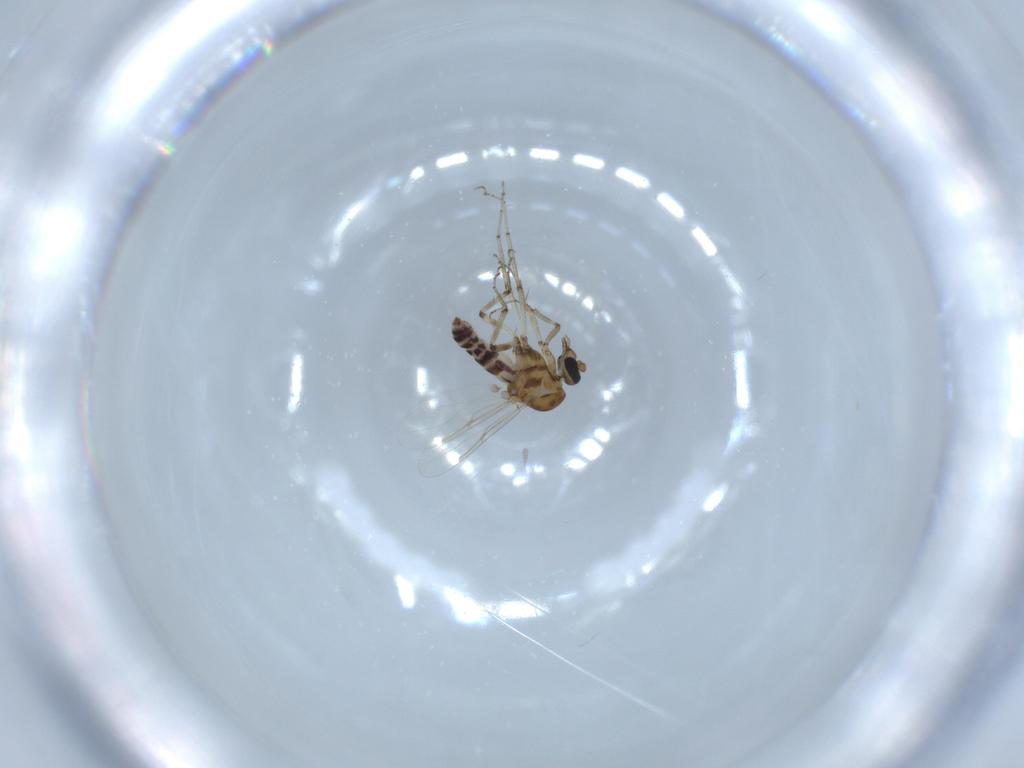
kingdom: Animalia
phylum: Arthropoda
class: Insecta
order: Diptera
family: Ceratopogonidae
